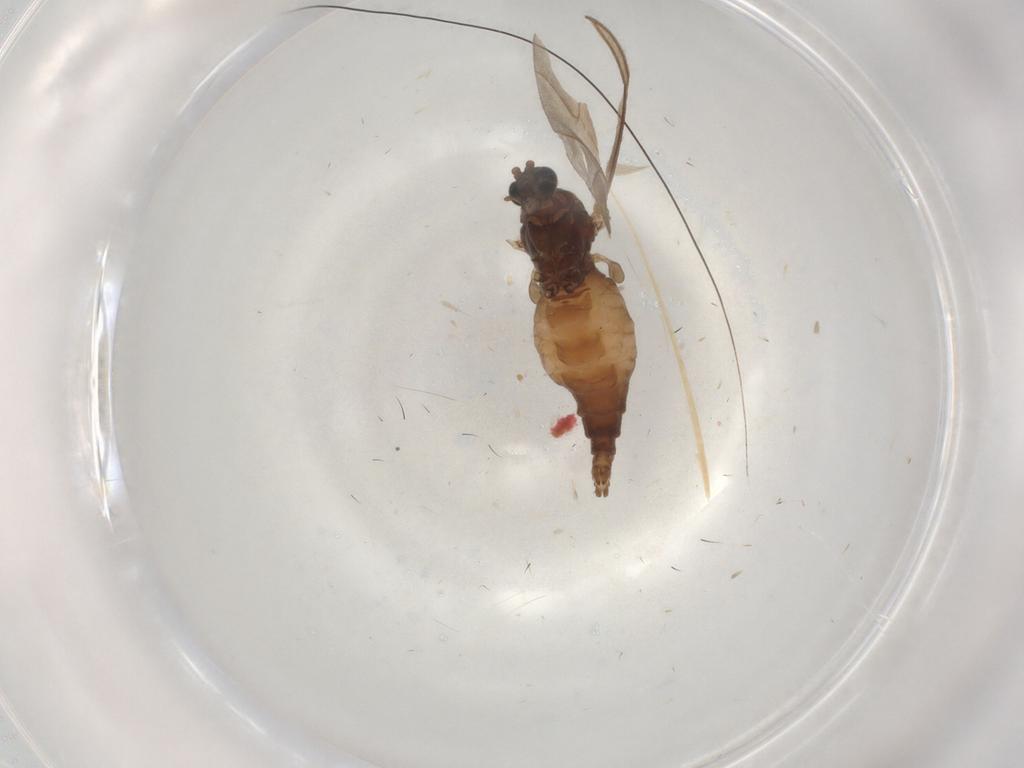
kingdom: Animalia
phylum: Arthropoda
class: Insecta
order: Diptera
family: Sciaridae
